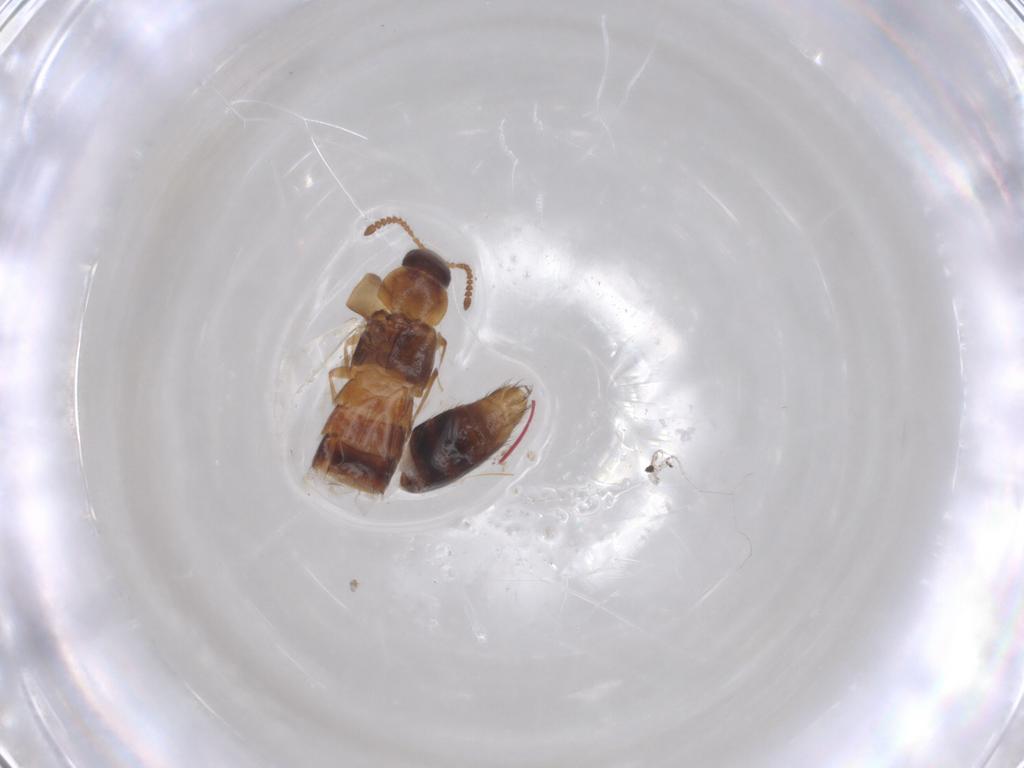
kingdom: Animalia
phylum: Arthropoda
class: Insecta
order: Coleoptera
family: Staphylinidae
